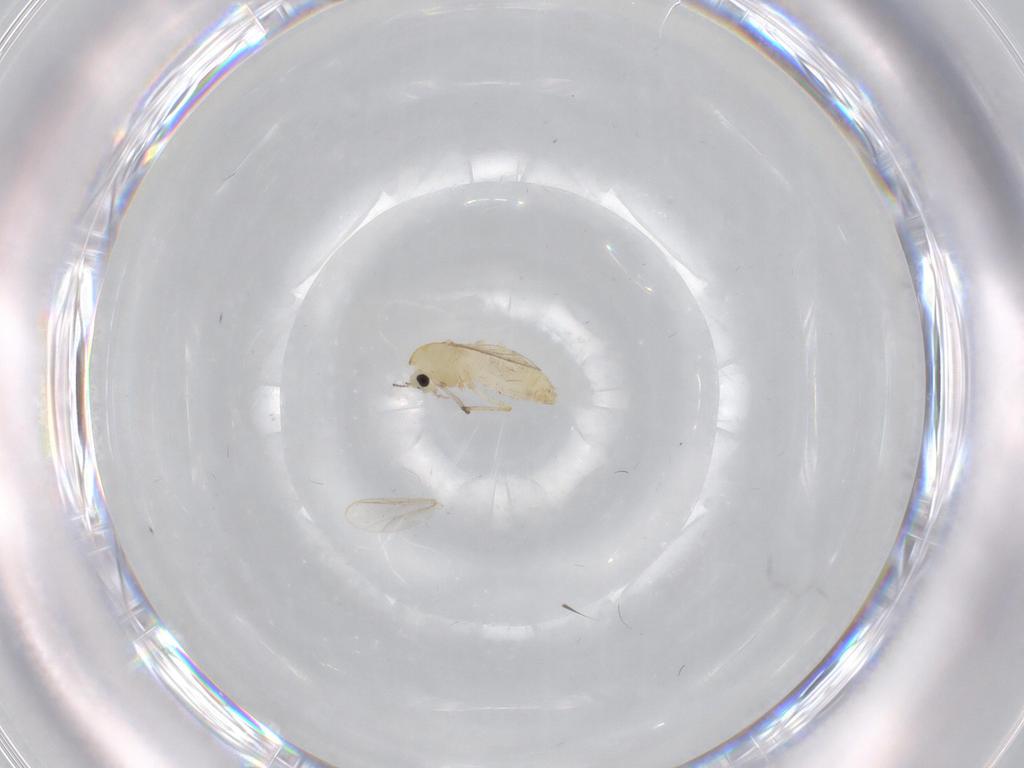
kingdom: Animalia
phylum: Arthropoda
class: Insecta
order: Diptera
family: Chironomidae
